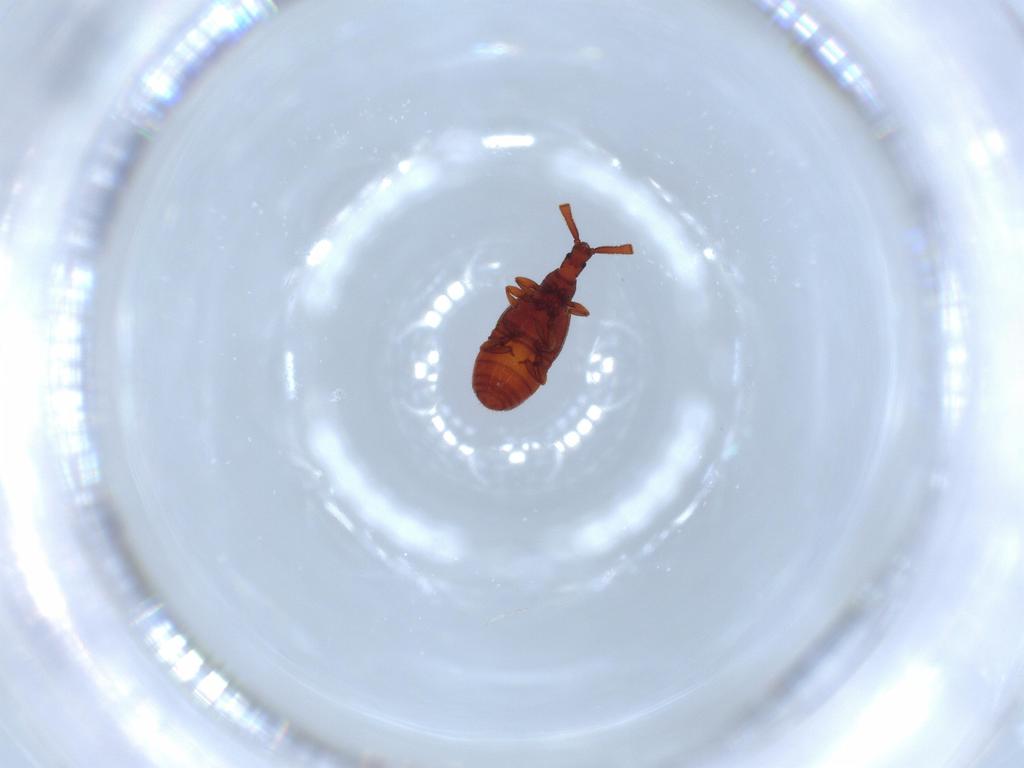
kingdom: Animalia
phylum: Arthropoda
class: Insecta
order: Coleoptera
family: Staphylinidae
